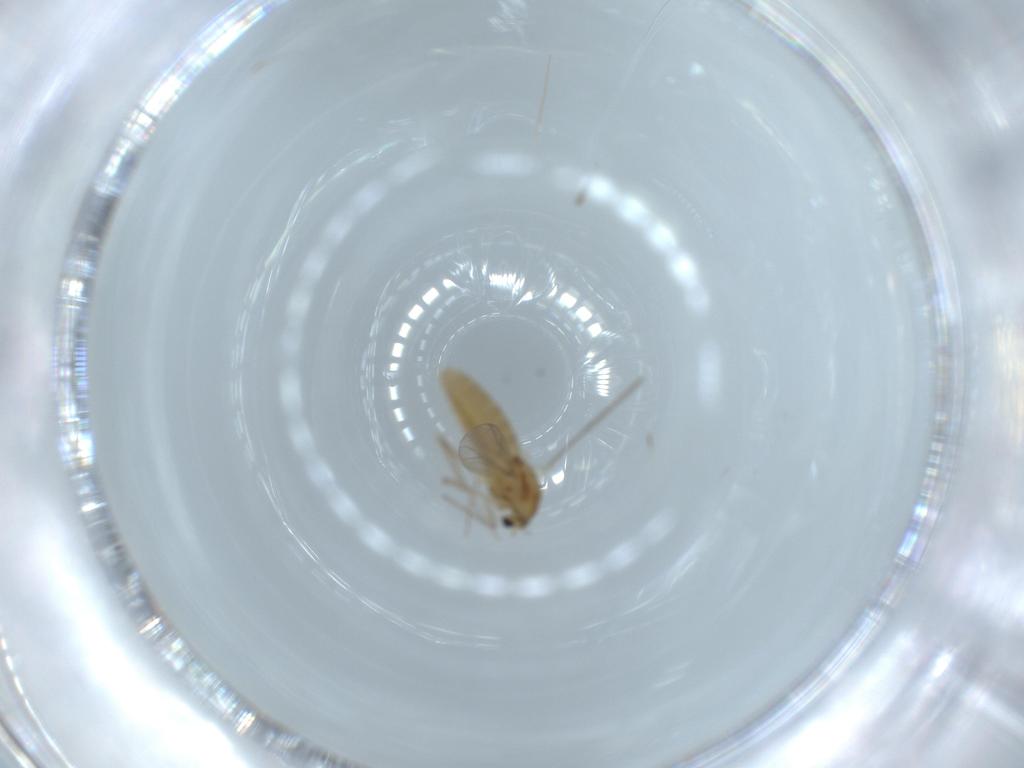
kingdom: Animalia
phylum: Arthropoda
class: Insecta
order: Diptera
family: Chironomidae
